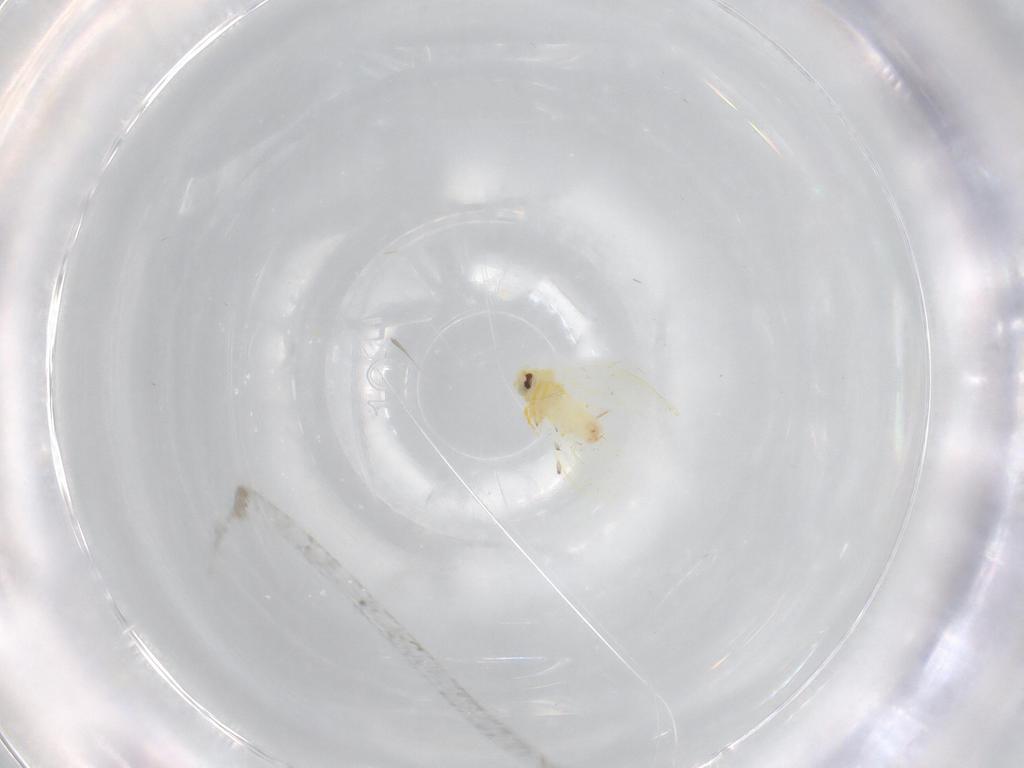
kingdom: Animalia
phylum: Arthropoda
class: Insecta
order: Hemiptera
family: Aleyrodidae
